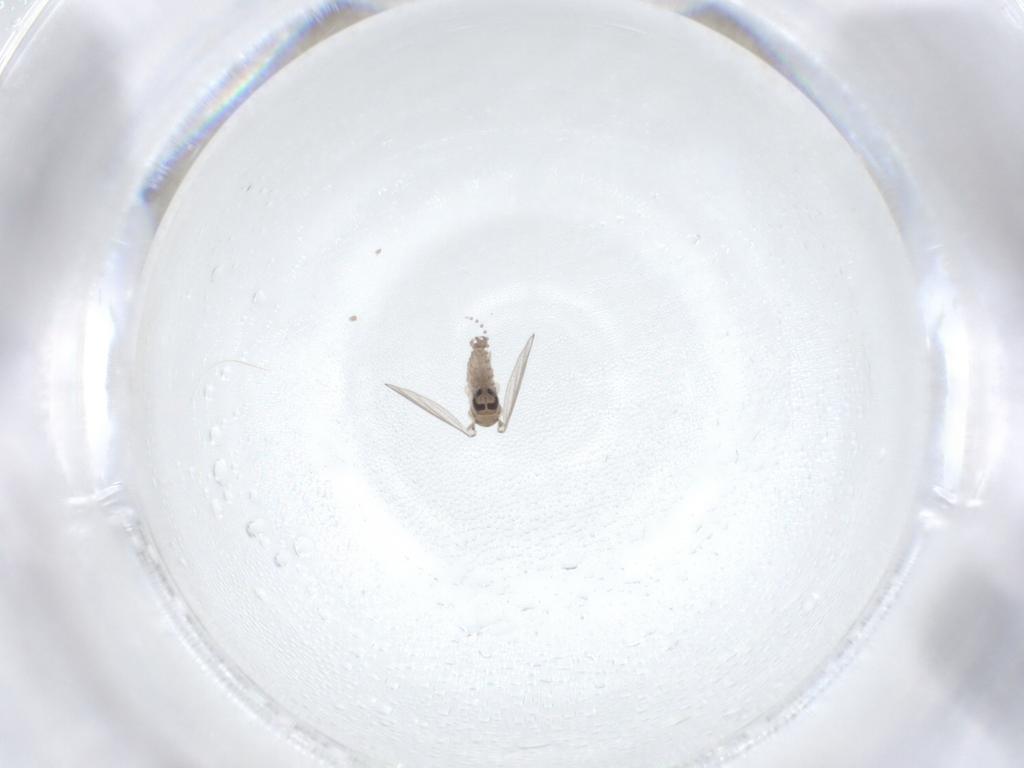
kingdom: Animalia
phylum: Arthropoda
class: Insecta
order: Diptera
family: Psychodidae
